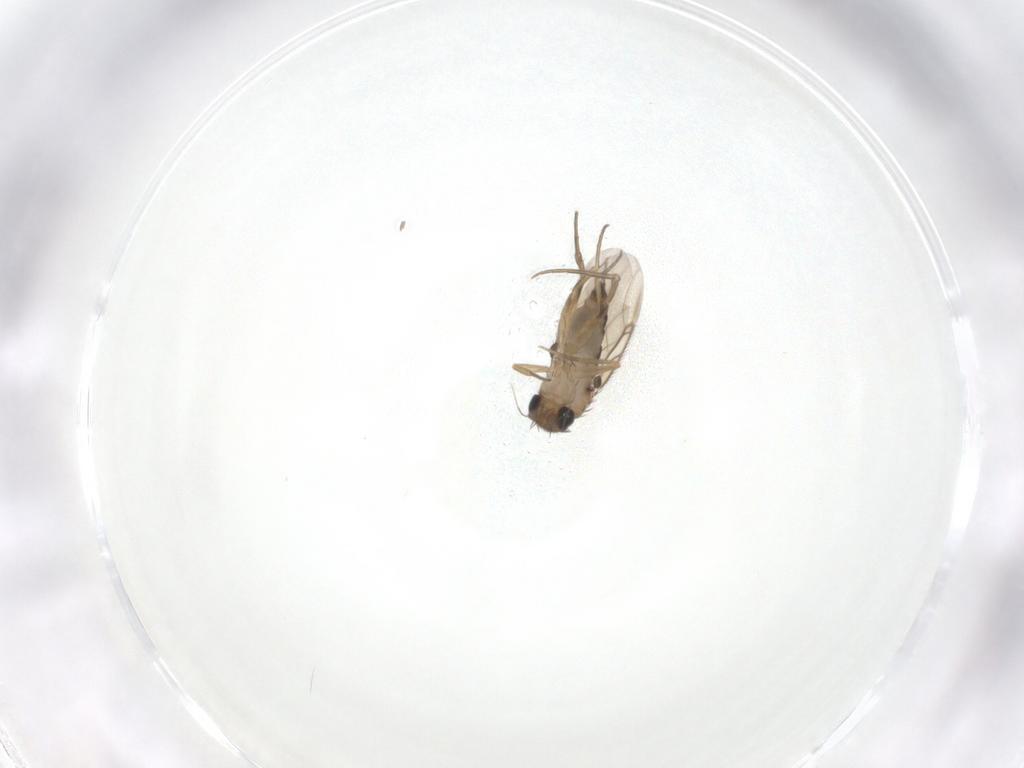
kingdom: Animalia
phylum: Arthropoda
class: Insecta
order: Diptera
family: Phoridae
